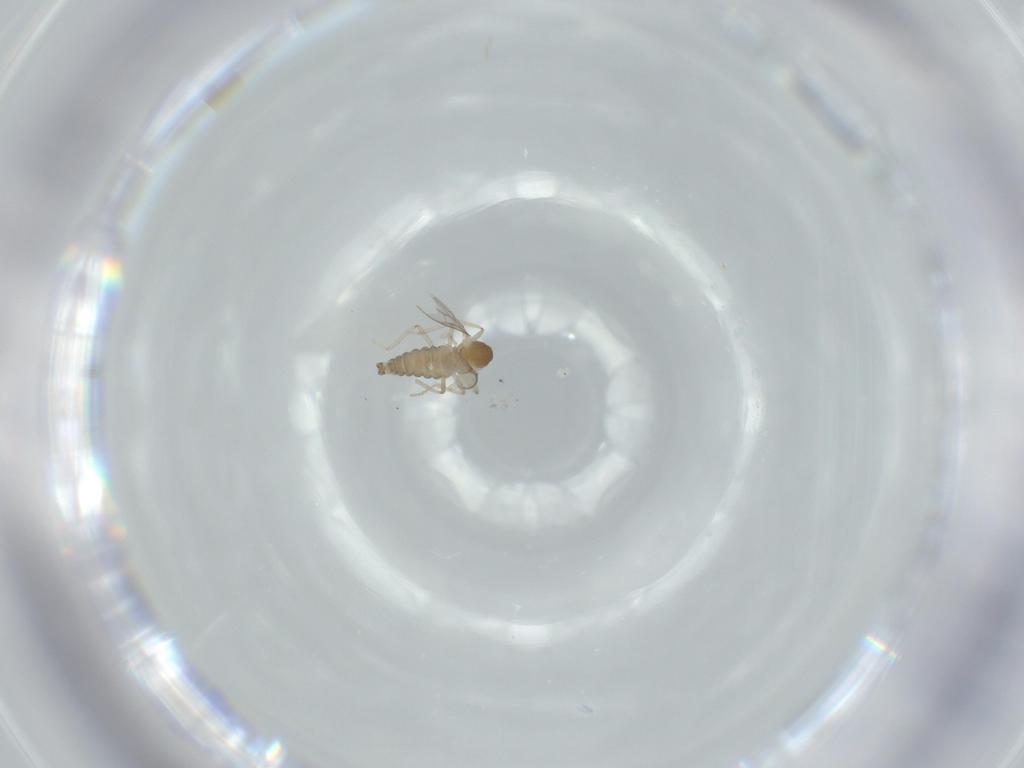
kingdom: Animalia
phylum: Arthropoda
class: Insecta
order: Diptera
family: Cecidomyiidae
